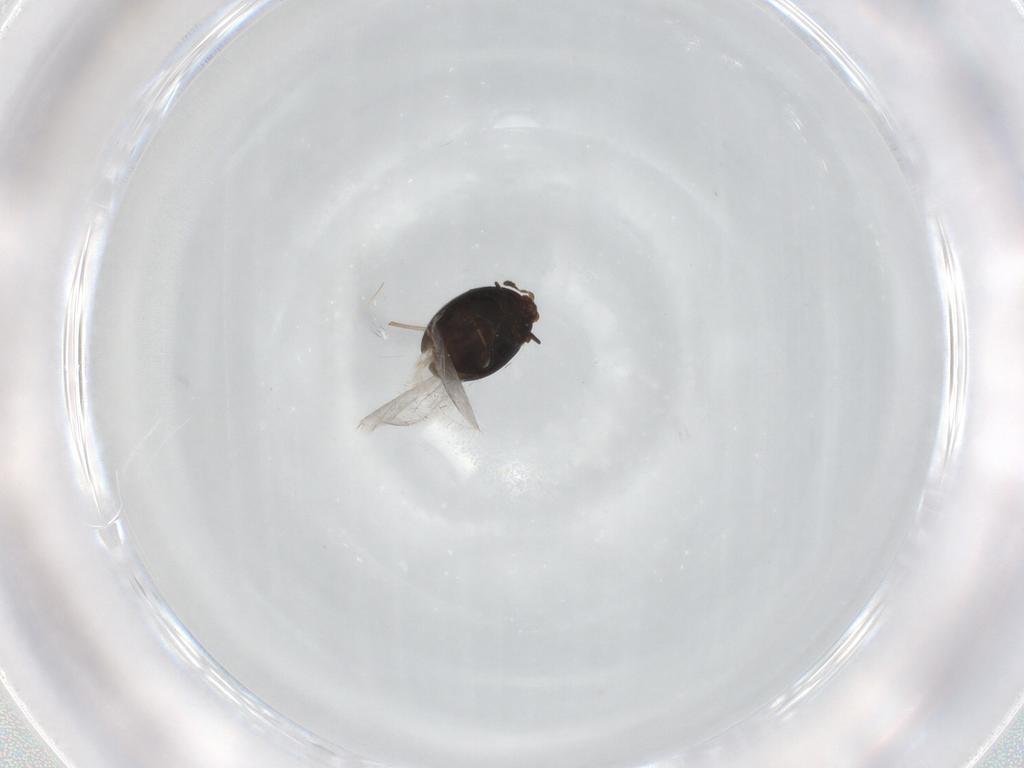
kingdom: Animalia
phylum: Arthropoda
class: Insecta
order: Coleoptera
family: Corylophidae
